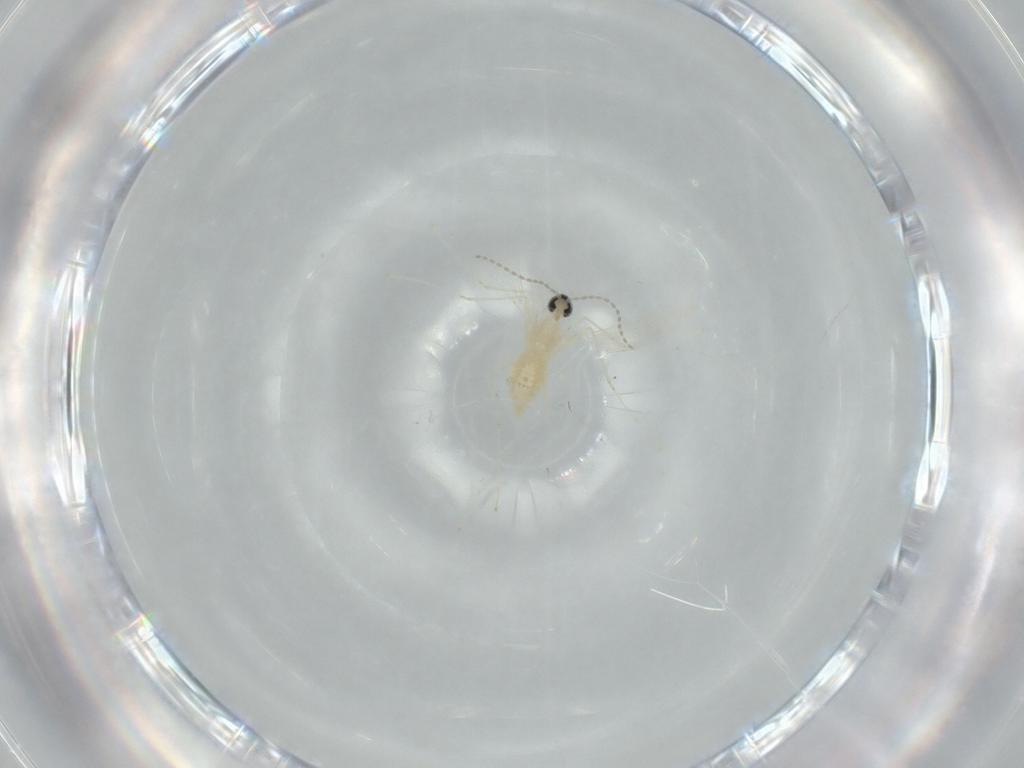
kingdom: Animalia
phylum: Arthropoda
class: Insecta
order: Diptera
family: Cecidomyiidae
